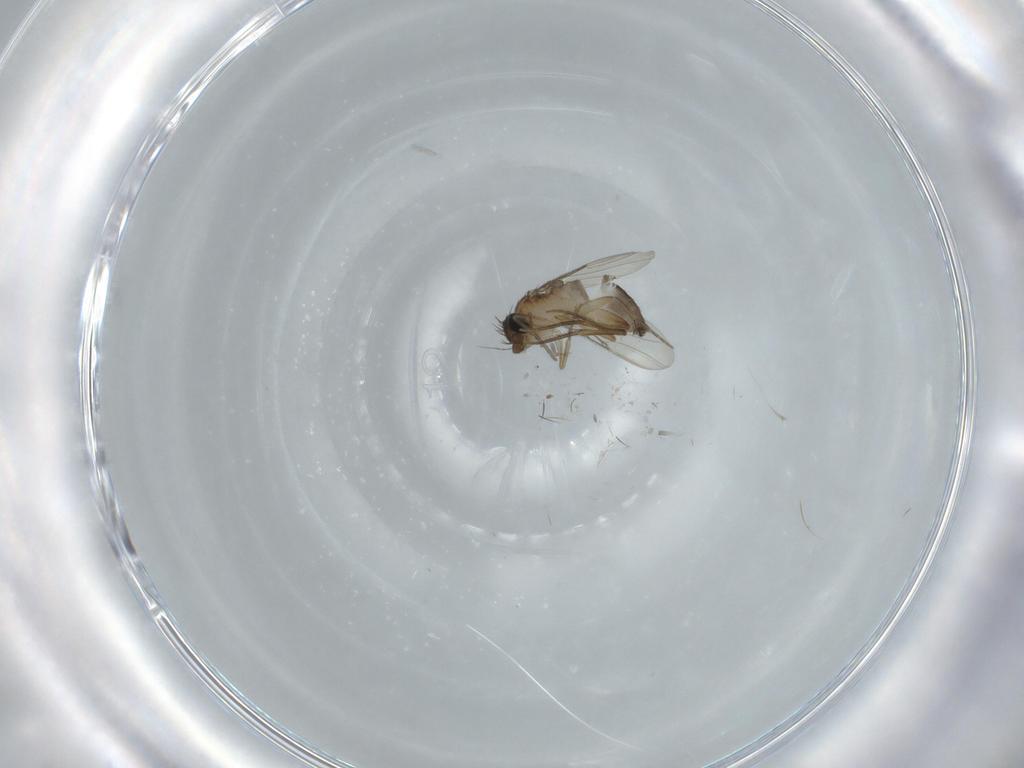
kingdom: Animalia
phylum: Arthropoda
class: Insecta
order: Diptera
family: Phoridae
